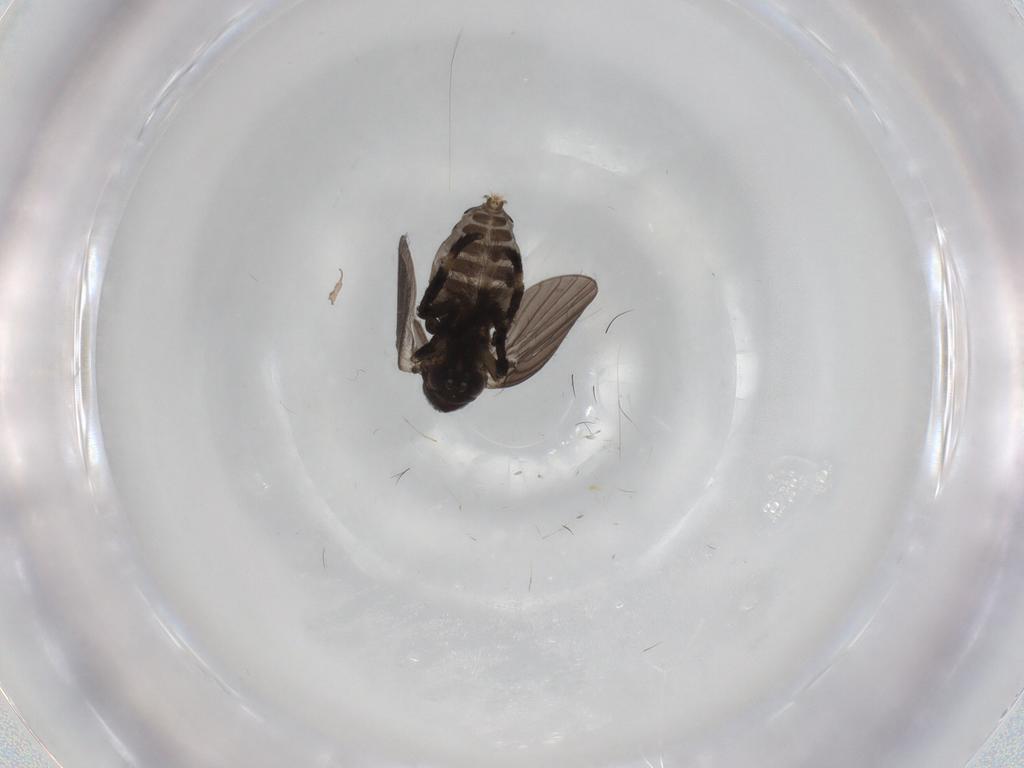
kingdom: Animalia
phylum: Arthropoda
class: Insecta
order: Diptera
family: Psychodidae
